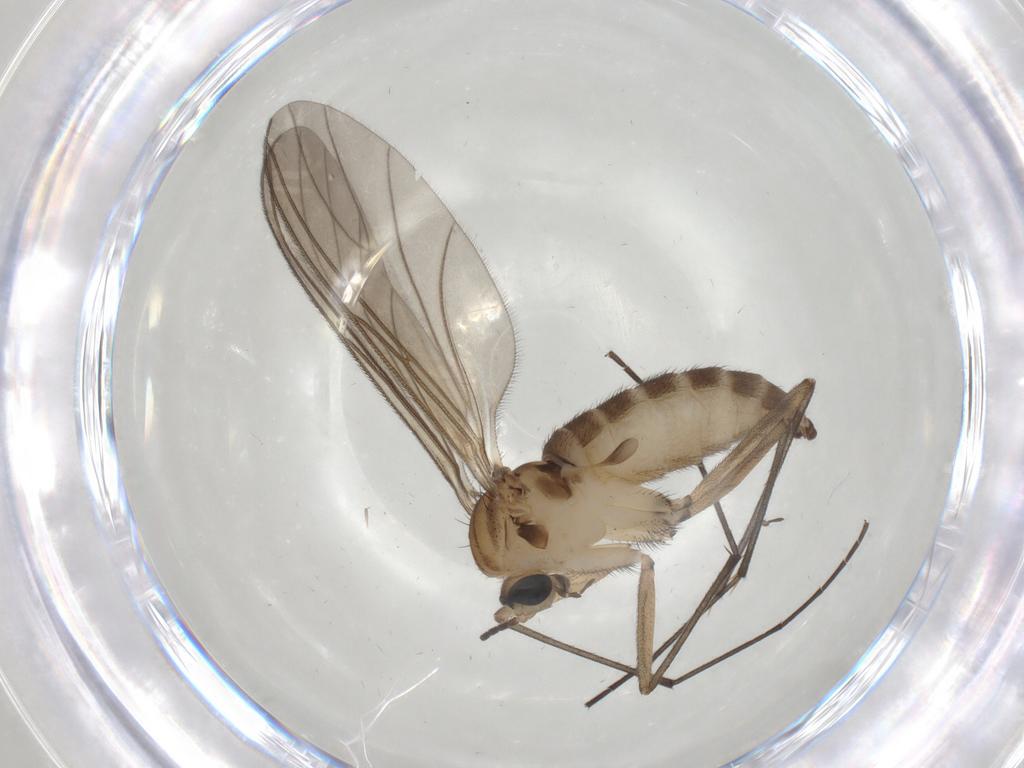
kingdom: Animalia
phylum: Arthropoda
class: Insecta
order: Diptera
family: Sciaridae
